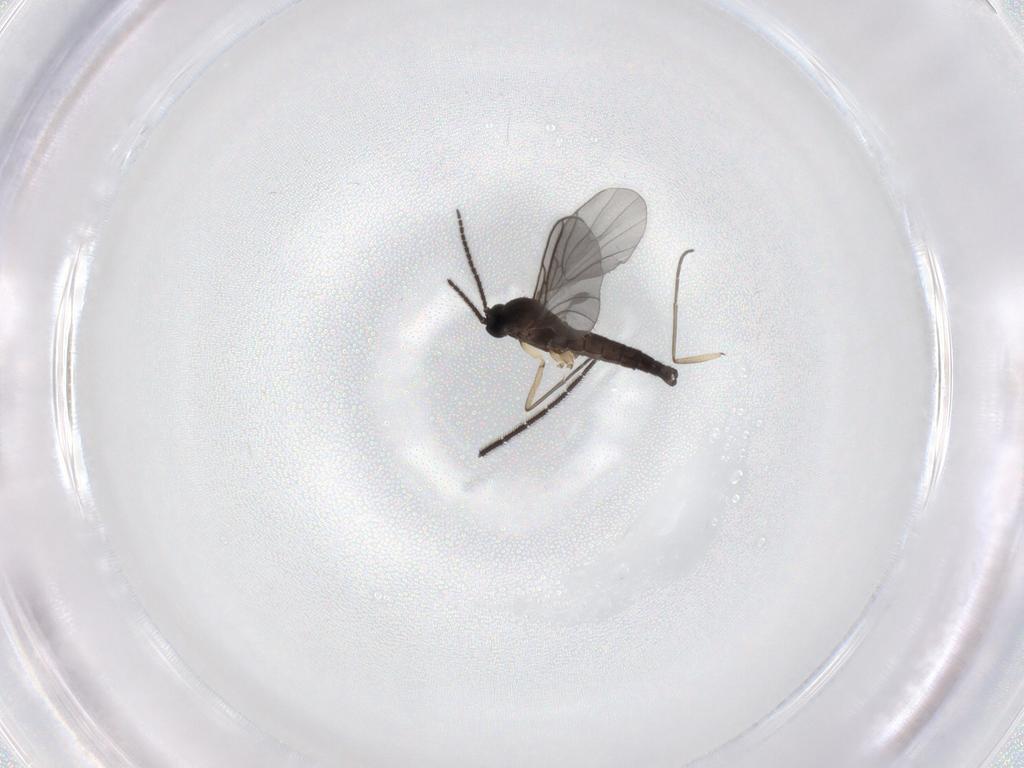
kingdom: Animalia
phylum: Arthropoda
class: Insecta
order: Diptera
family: Sciaridae
